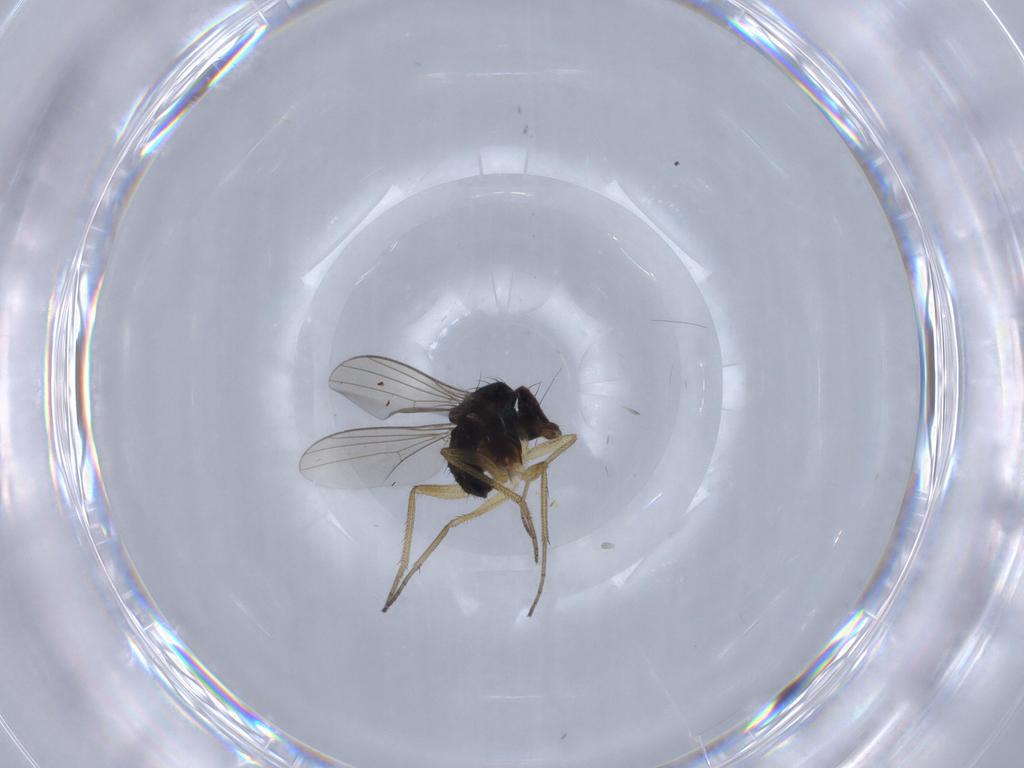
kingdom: Animalia
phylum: Arthropoda
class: Insecta
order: Diptera
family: Dolichopodidae
